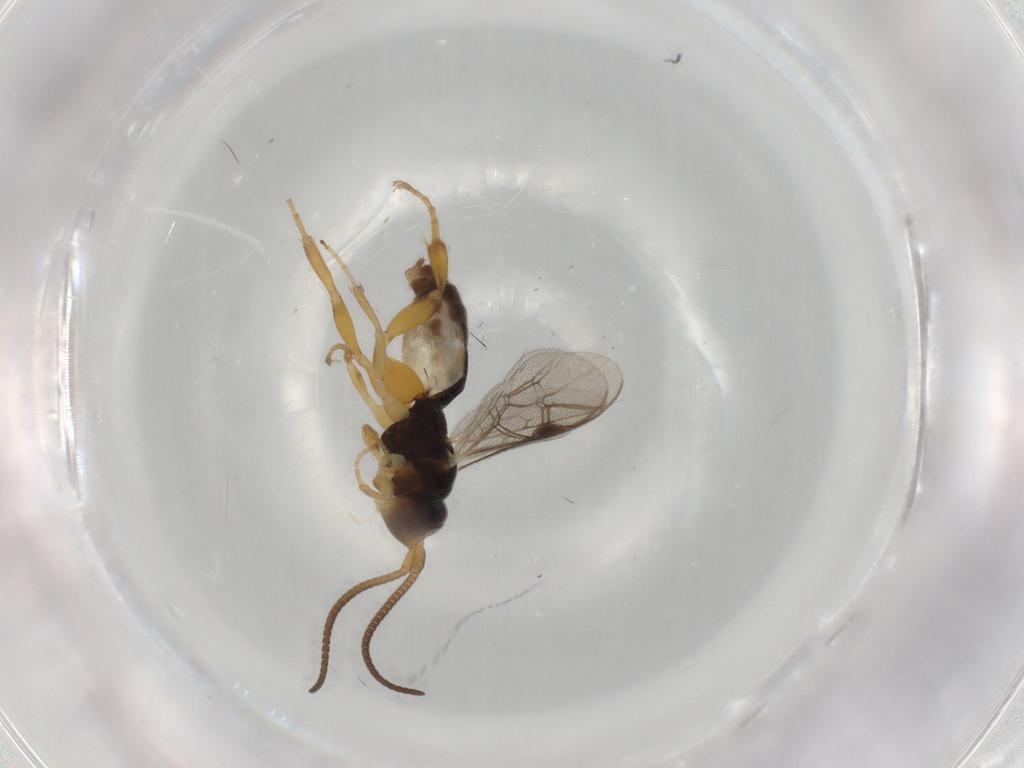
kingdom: Animalia
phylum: Arthropoda
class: Insecta
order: Hymenoptera
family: Ichneumonidae
